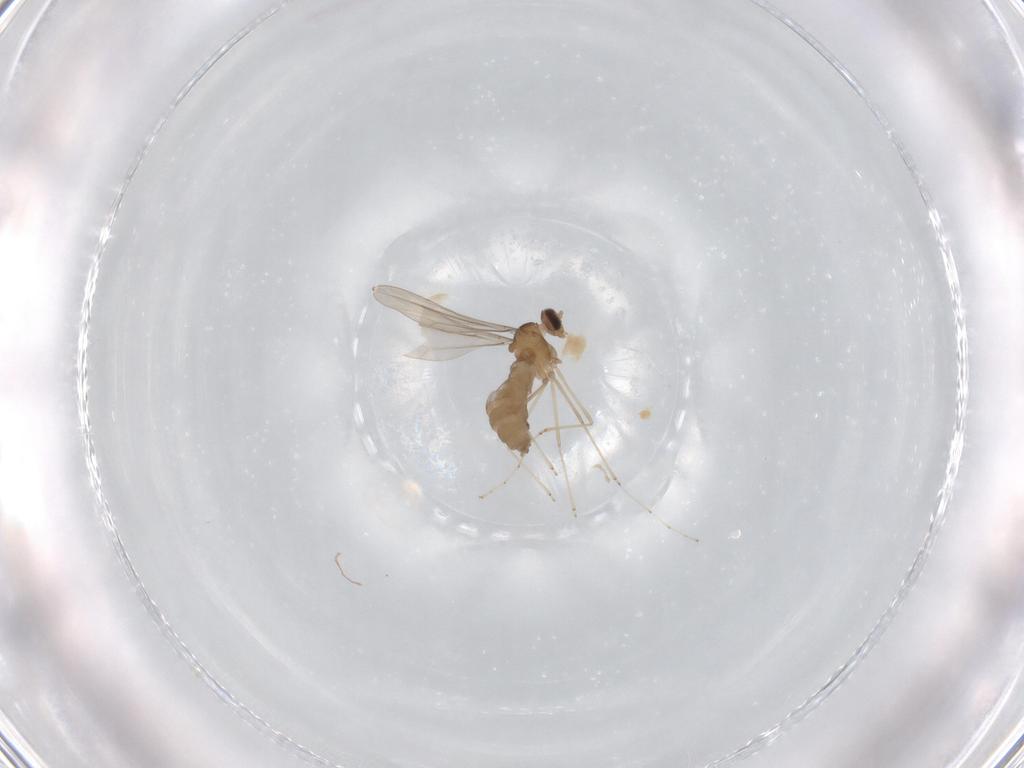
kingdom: Animalia
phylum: Arthropoda
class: Insecta
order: Diptera
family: Cecidomyiidae
